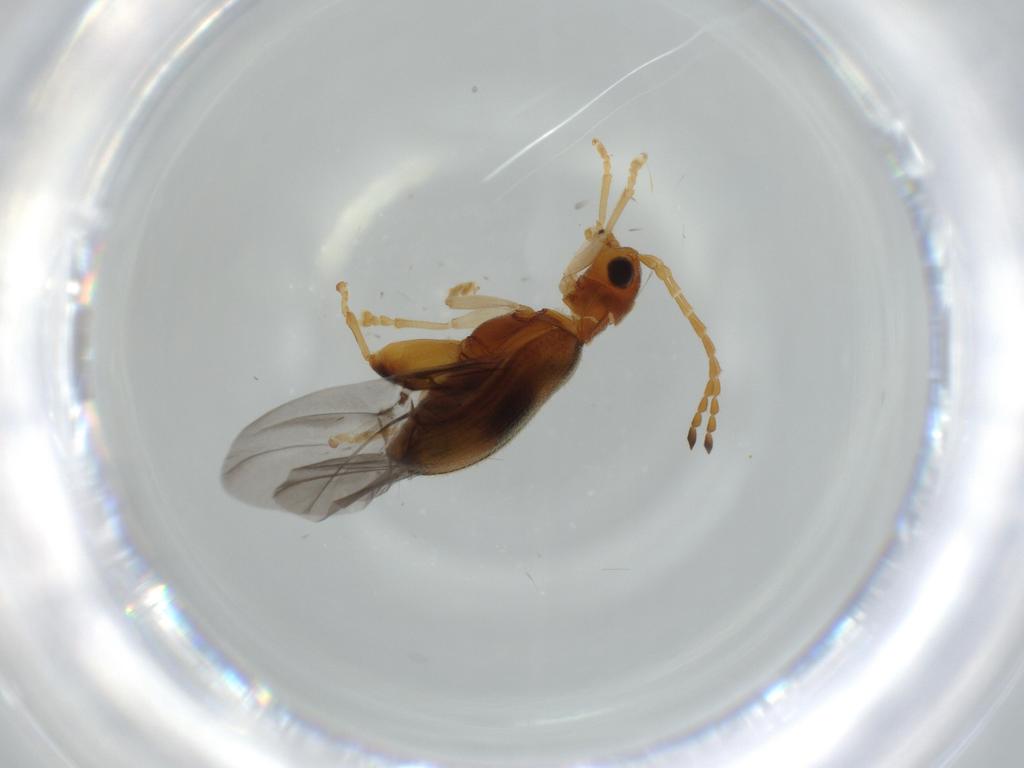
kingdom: Animalia
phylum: Arthropoda
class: Insecta
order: Coleoptera
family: Chrysomelidae
